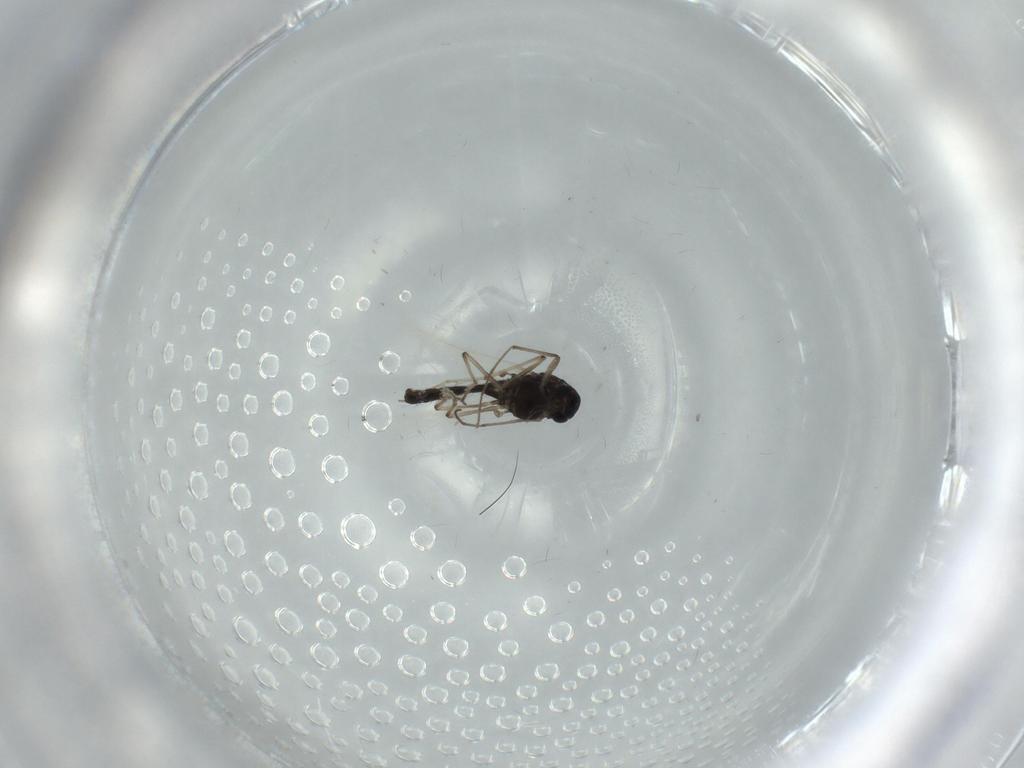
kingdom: Animalia
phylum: Arthropoda
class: Insecta
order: Diptera
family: Chironomidae
